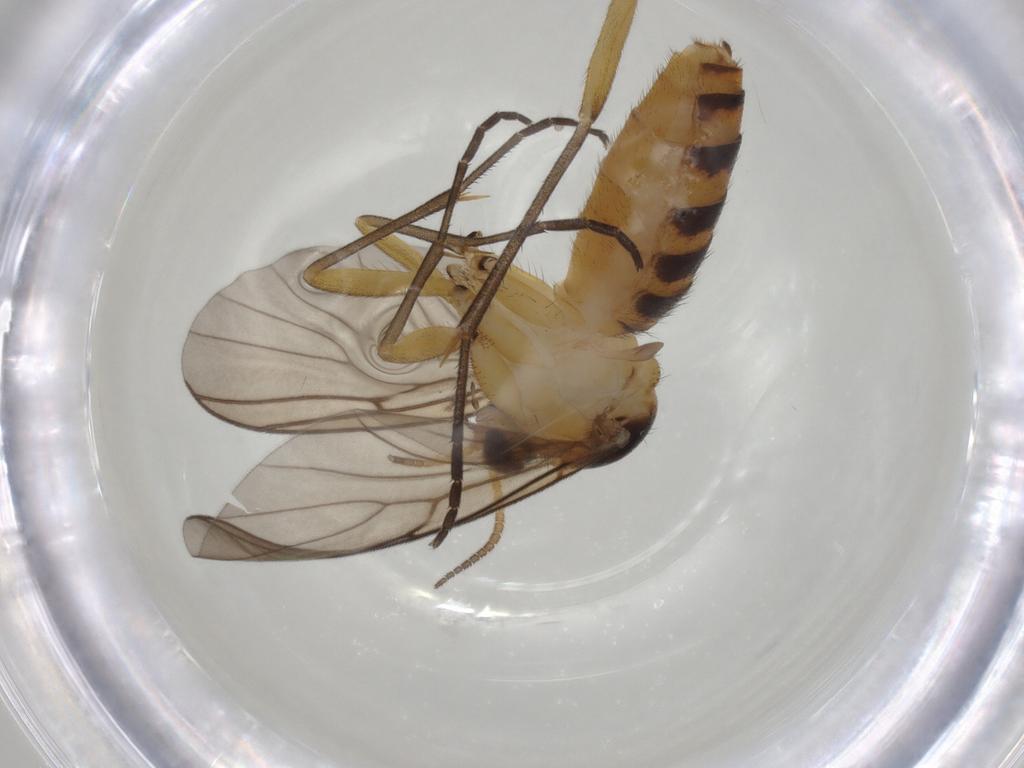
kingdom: Animalia
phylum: Arthropoda
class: Insecta
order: Diptera
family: Mycetophilidae
